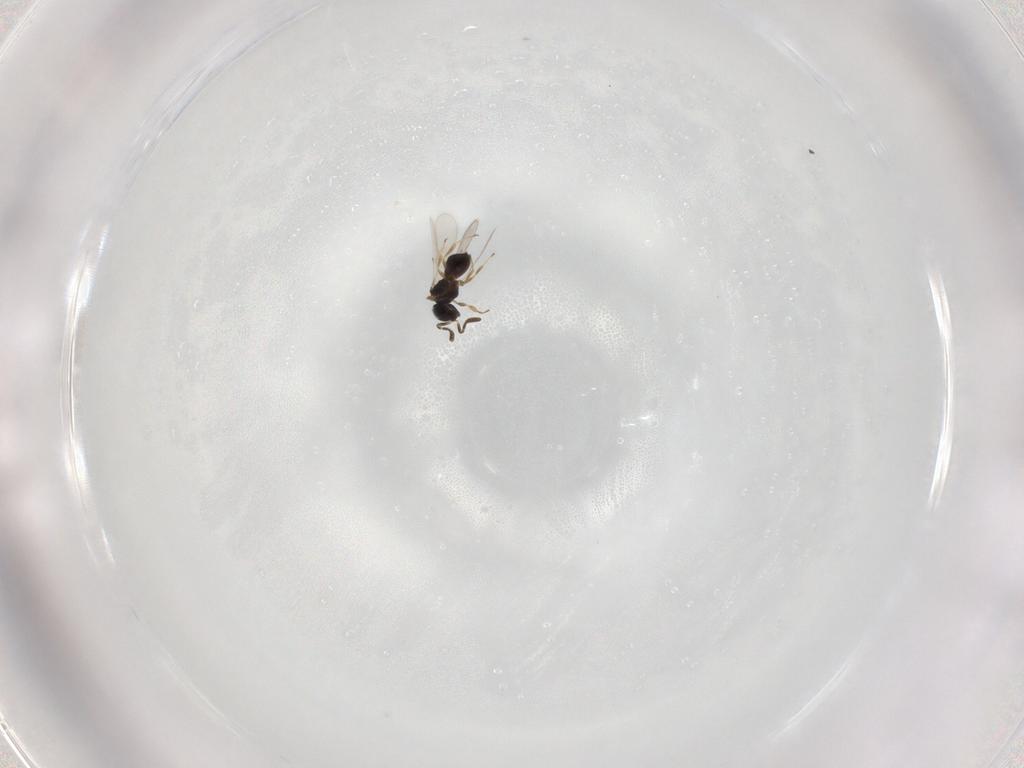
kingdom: Animalia
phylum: Arthropoda
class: Insecta
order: Hymenoptera
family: Scelionidae
